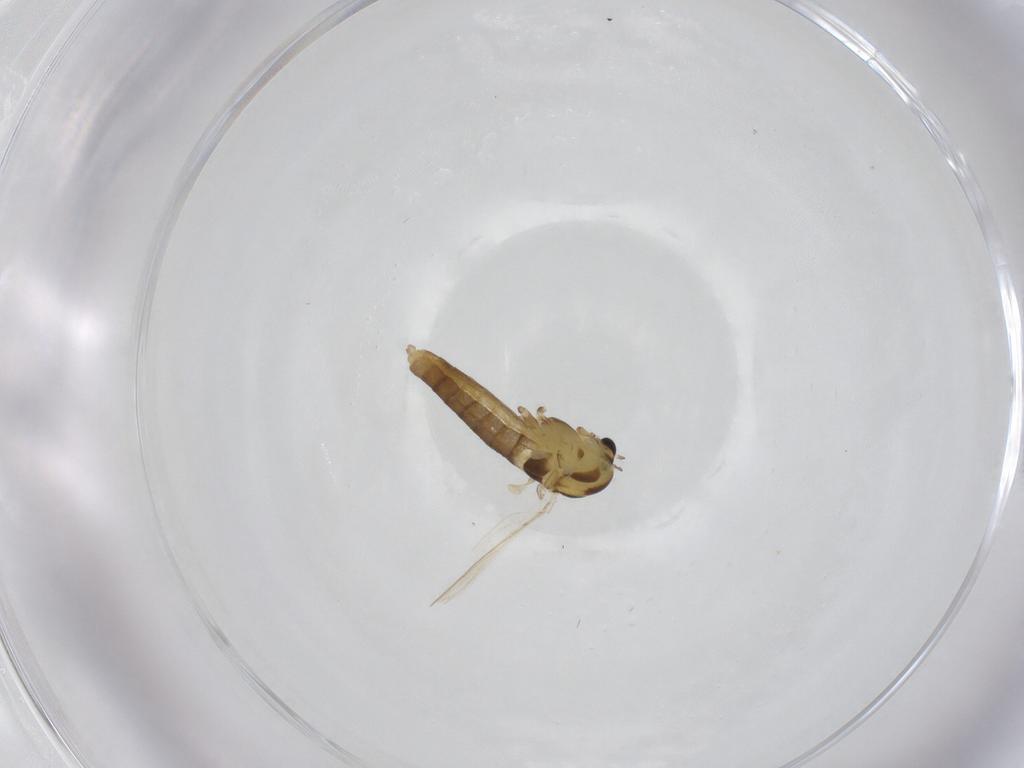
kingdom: Animalia
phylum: Arthropoda
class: Insecta
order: Diptera
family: Chironomidae
